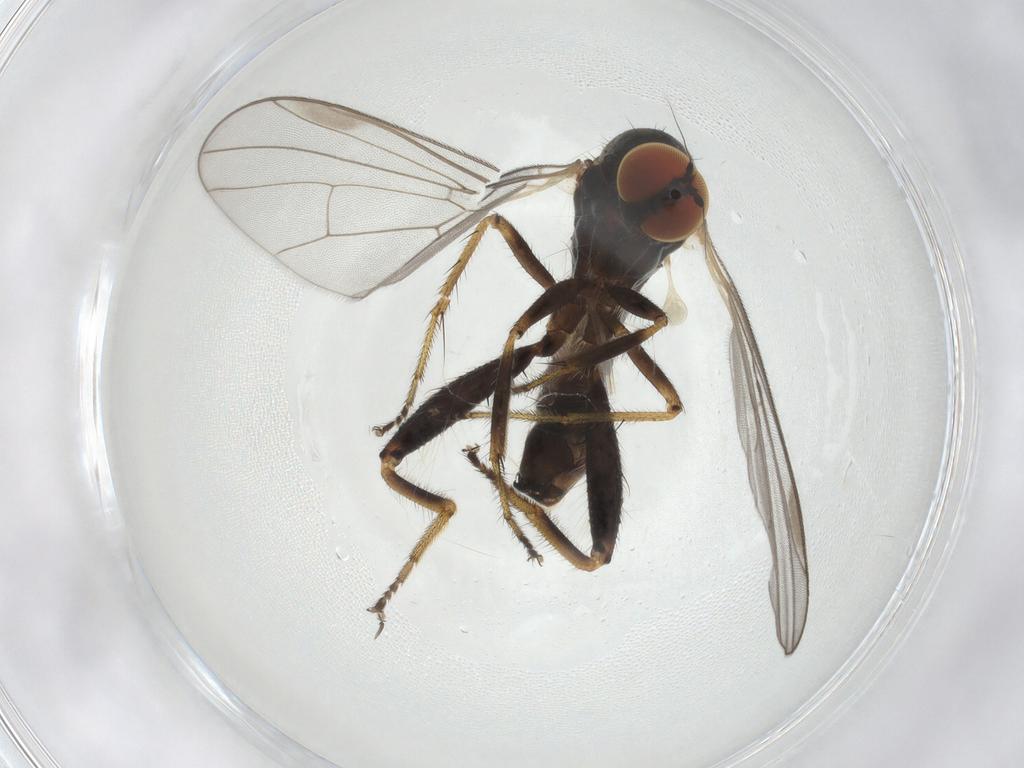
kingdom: Animalia
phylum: Arthropoda
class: Insecta
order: Diptera
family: Hybotidae
